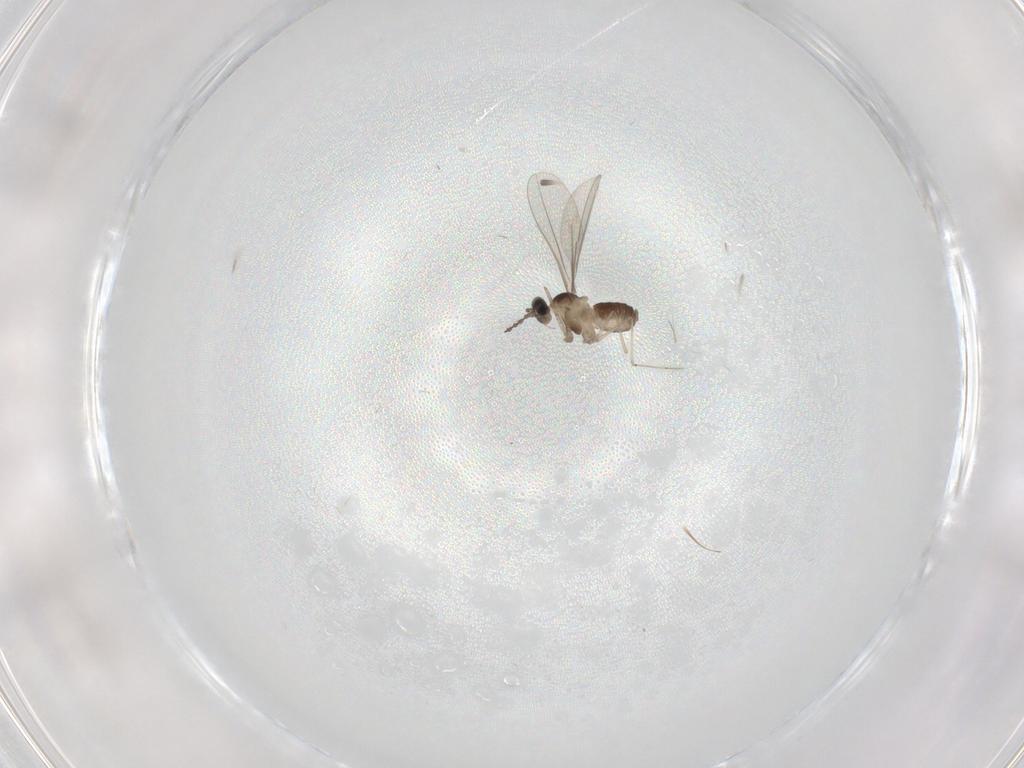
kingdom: Animalia
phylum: Arthropoda
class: Insecta
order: Diptera
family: Cecidomyiidae
